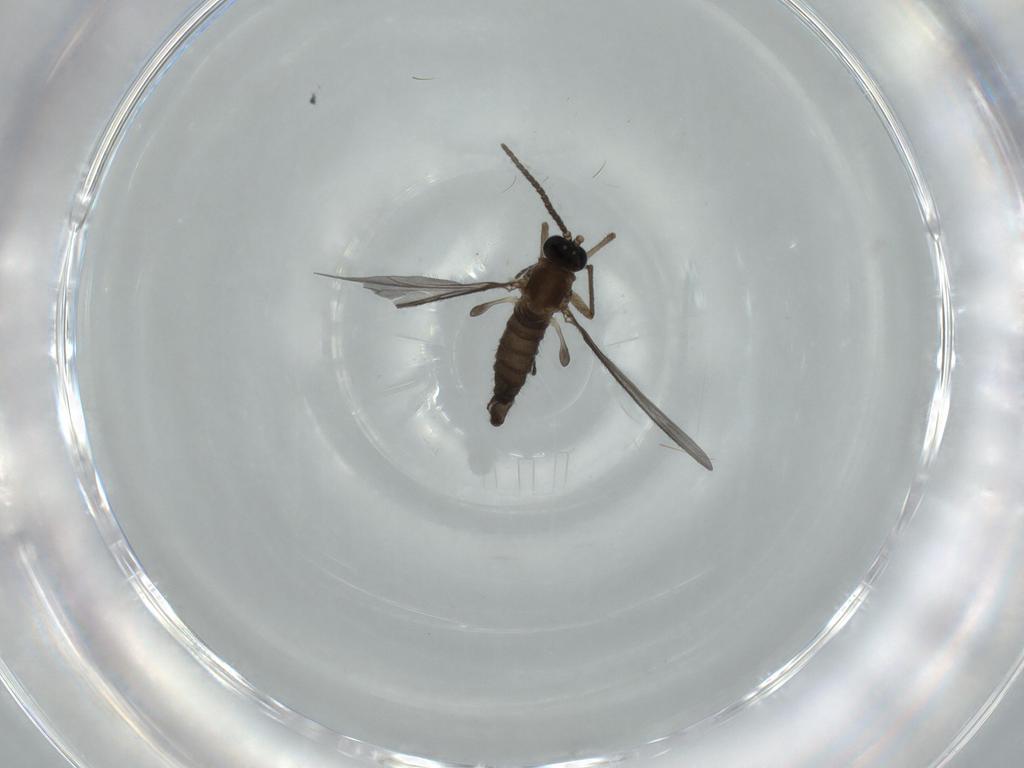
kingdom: Animalia
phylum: Arthropoda
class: Insecta
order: Diptera
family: Sciaridae
